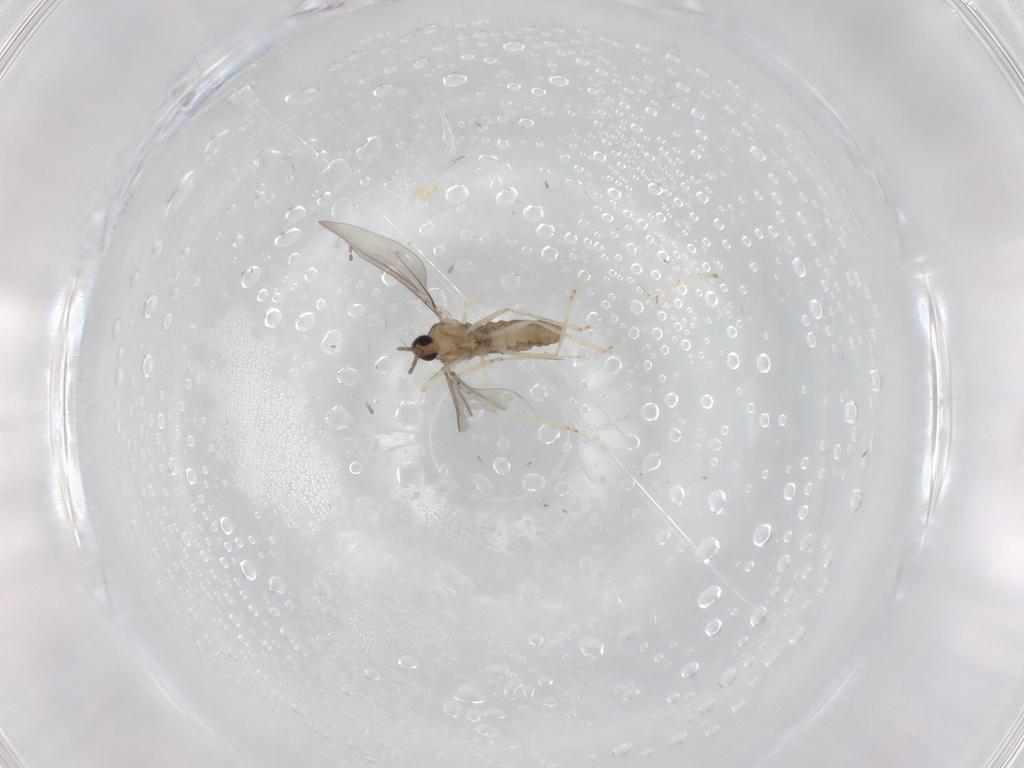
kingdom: Animalia
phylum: Arthropoda
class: Insecta
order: Diptera
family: Cecidomyiidae
